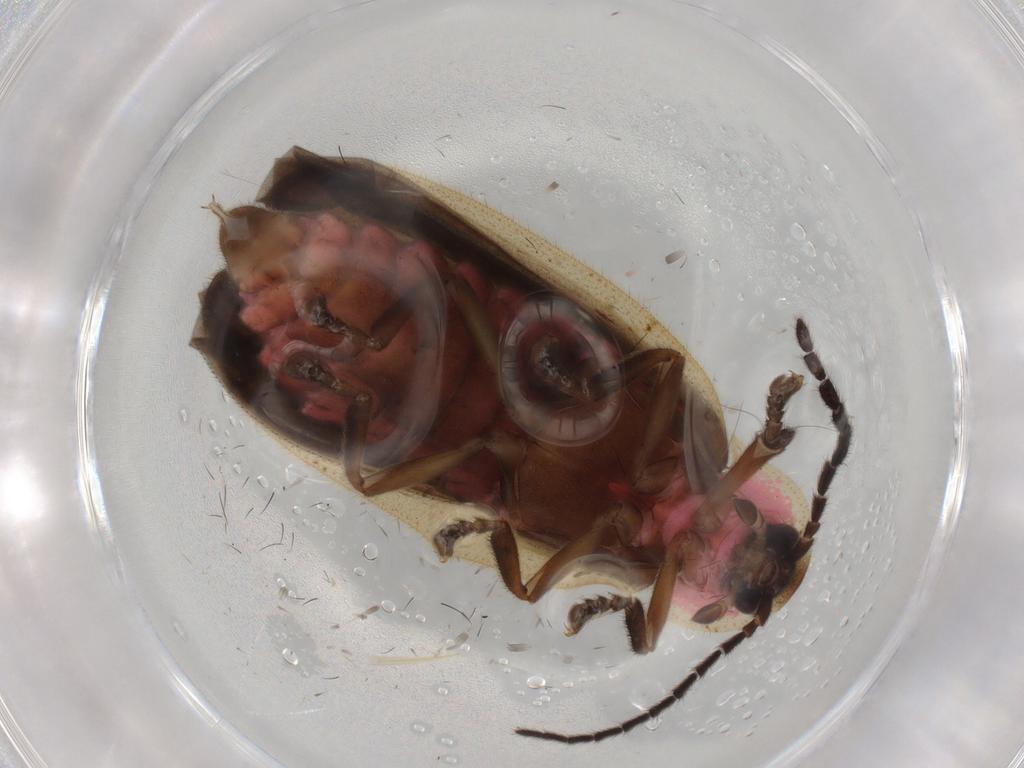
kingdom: Animalia
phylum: Arthropoda
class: Insecta
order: Coleoptera
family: Lampyridae
